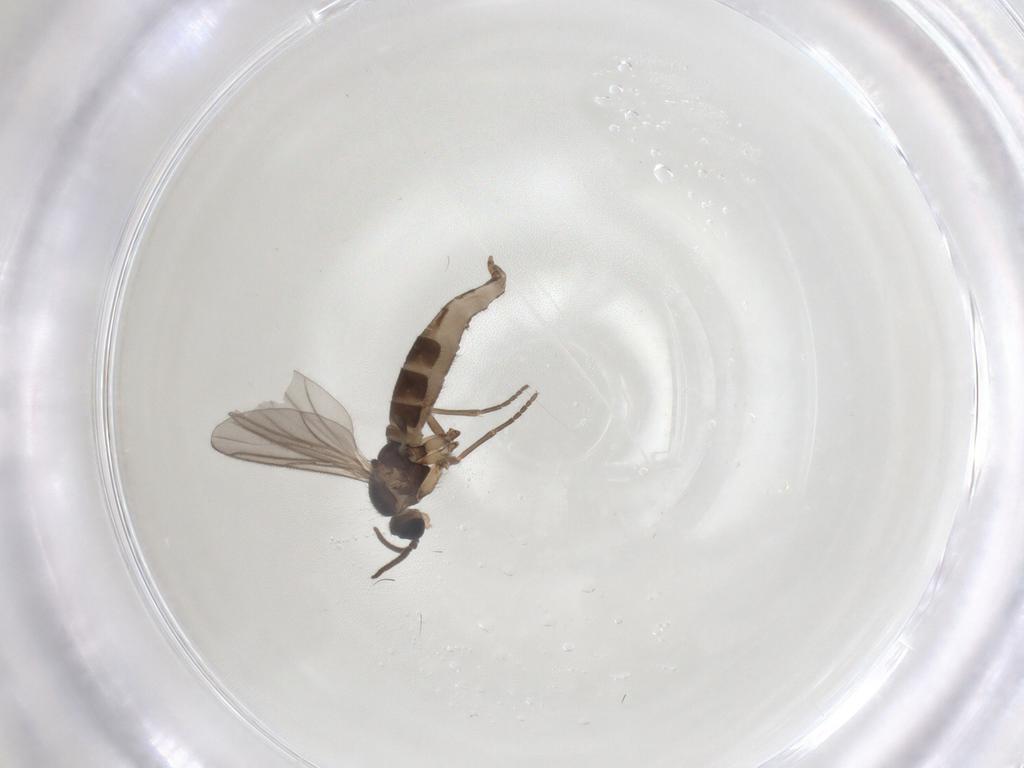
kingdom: Animalia
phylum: Arthropoda
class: Insecta
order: Diptera
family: Sciaridae
